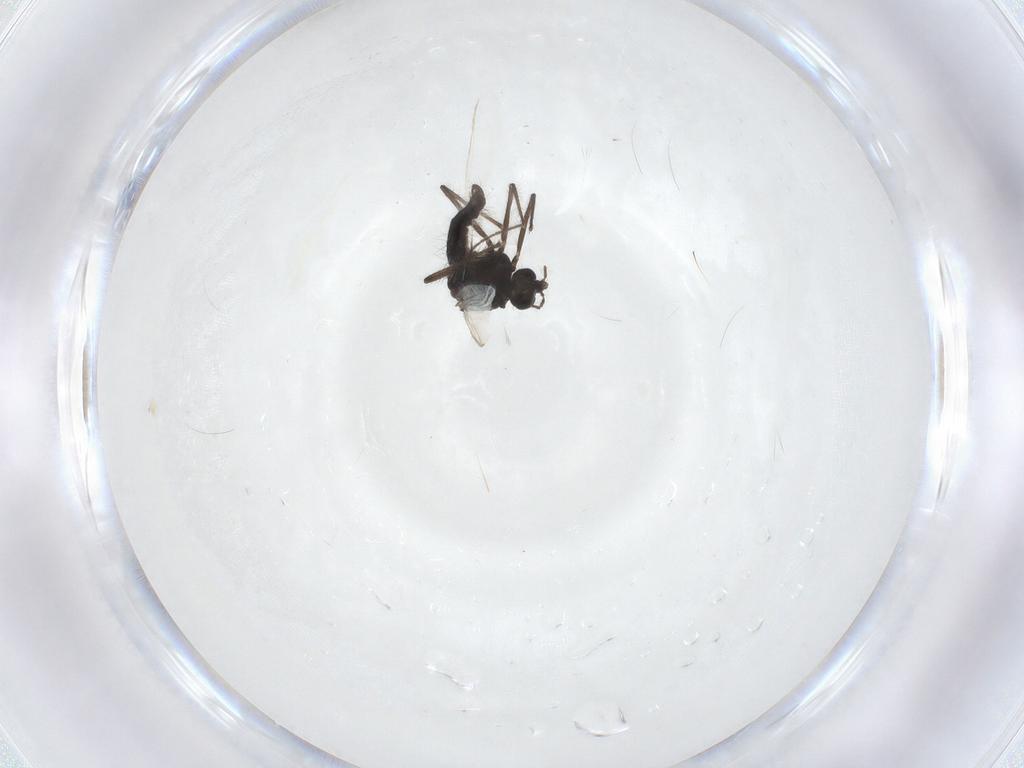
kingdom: Animalia
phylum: Arthropoda
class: Insecta
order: Diptera
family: Chironomidae
